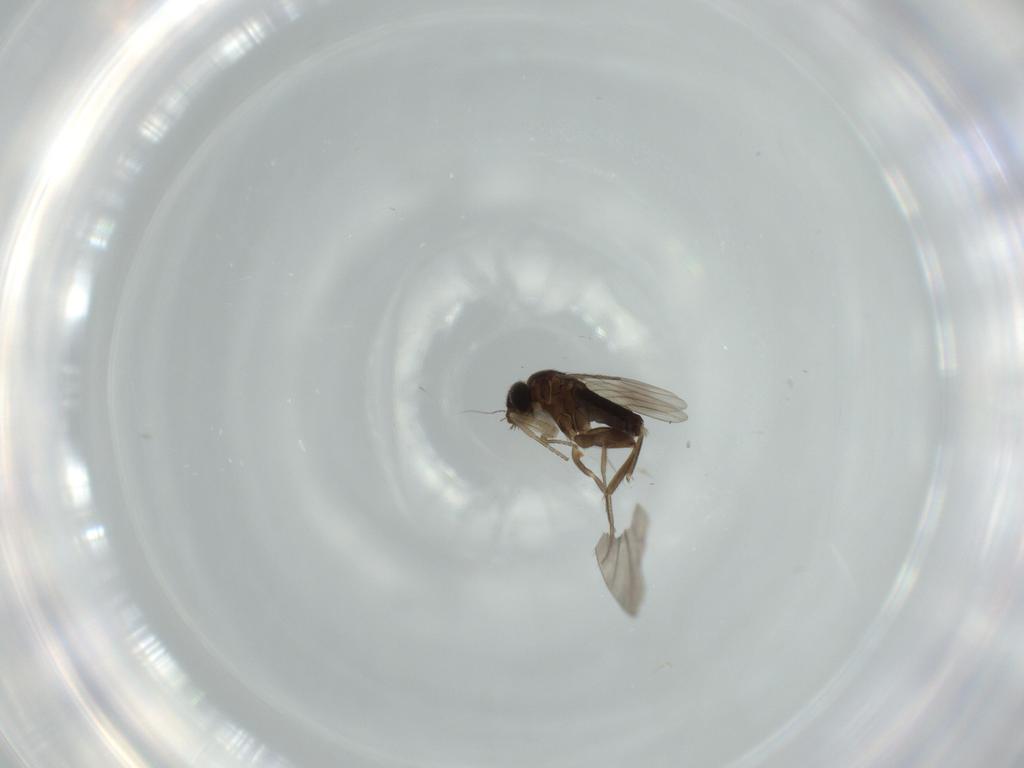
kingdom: Animalia
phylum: Arthropoda
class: Insecta
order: Diptera
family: Phoridae
